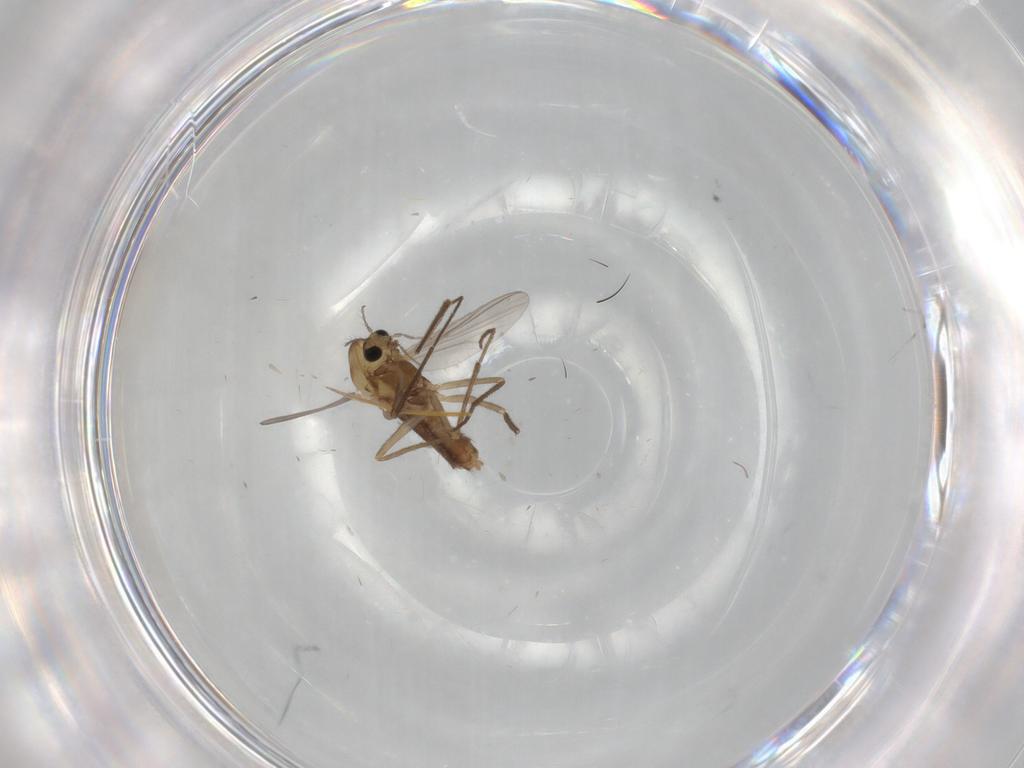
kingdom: Animalia
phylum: Arthropoda
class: Insecta
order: Diptera
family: Chironomidae
